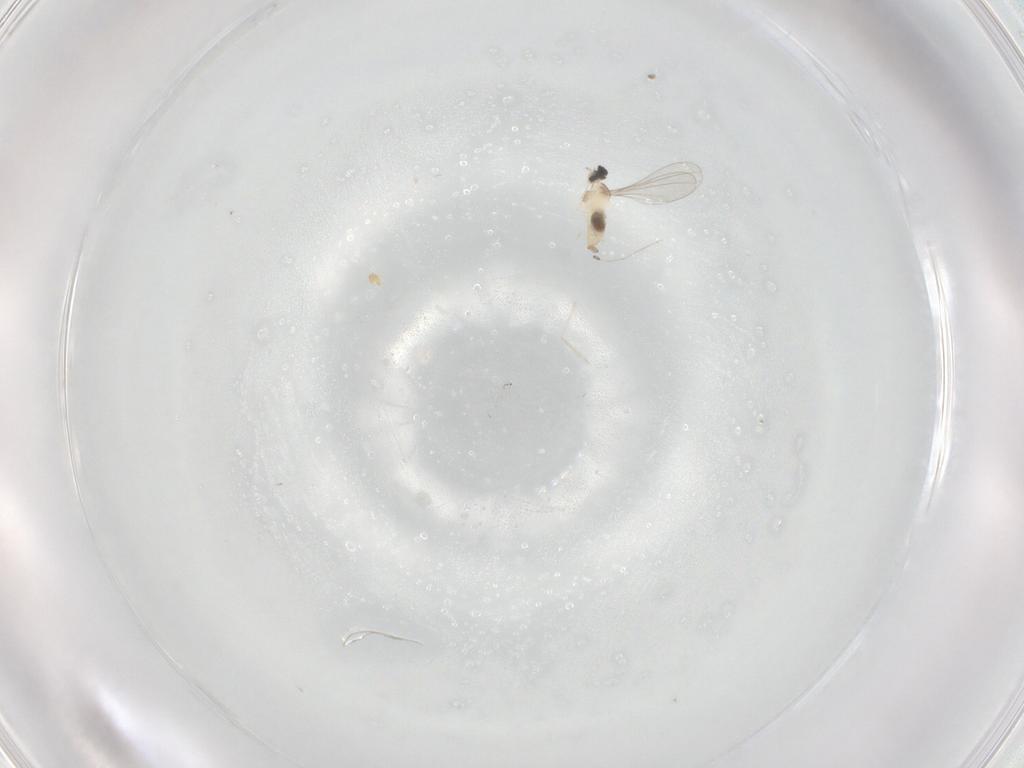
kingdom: Animalia
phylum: Arthropoda
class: Insecta
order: Diptera
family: Cecidomyiidae
